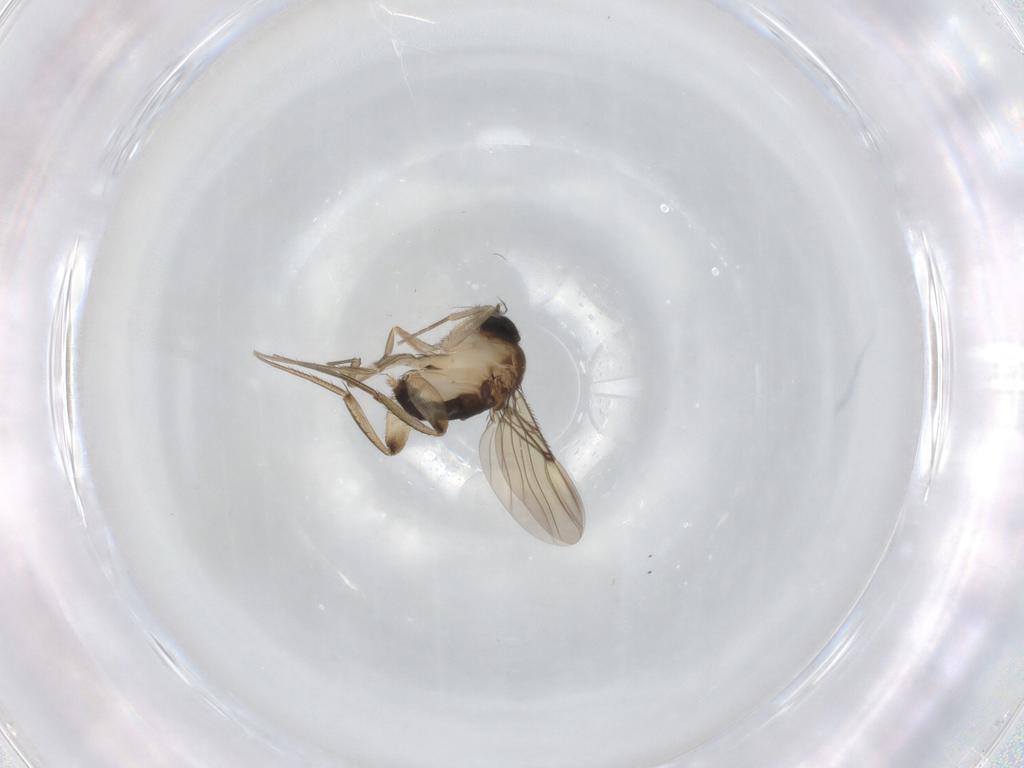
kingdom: Animalia
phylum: Arthropoda
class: Insecta
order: Diptera
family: Phoridae
